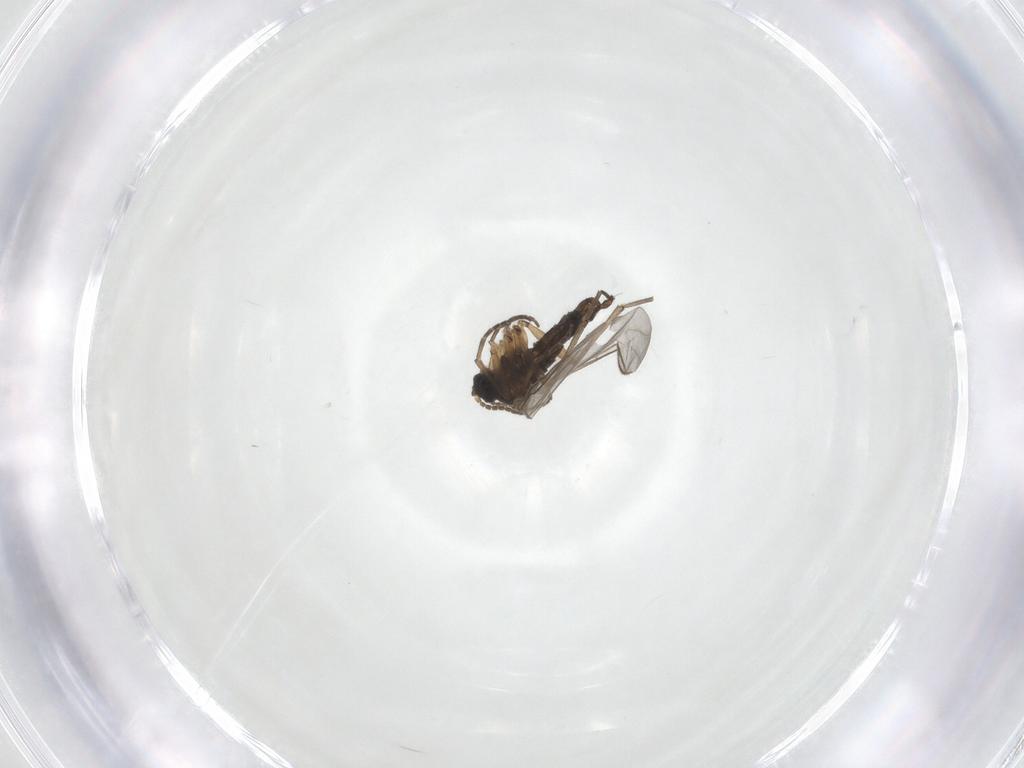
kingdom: Animalia
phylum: Arthropoda
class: Insecta
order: Diptera
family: Sciaridae
